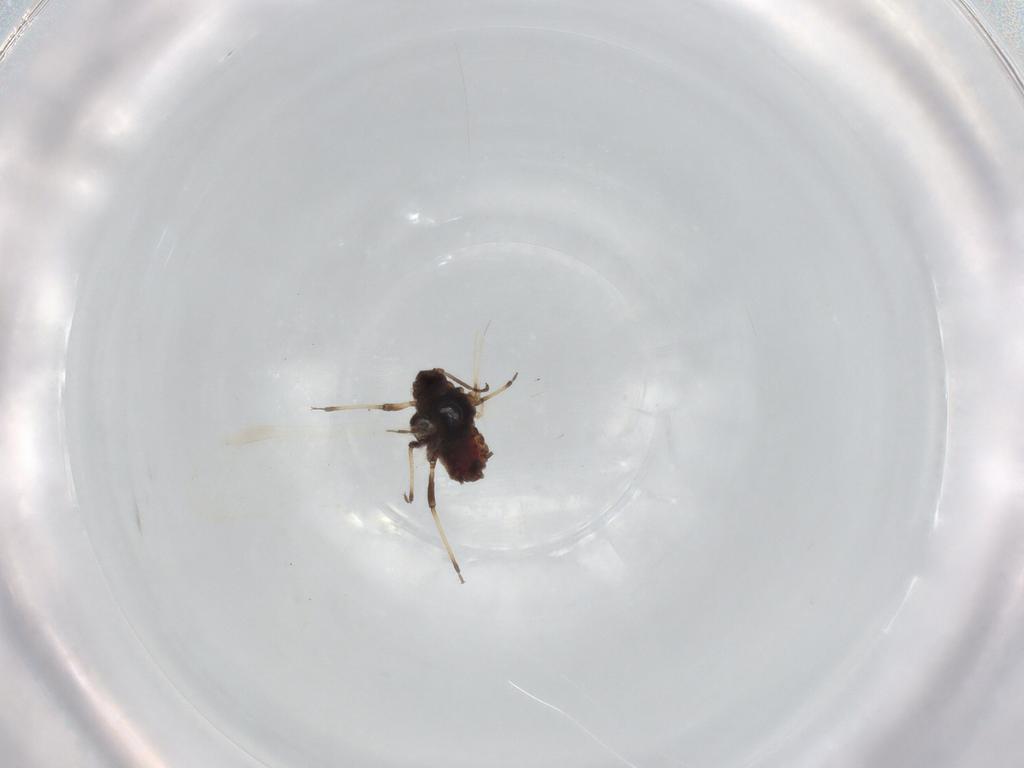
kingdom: Animalia
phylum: Arthropoda
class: Insecta
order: Hemiptera
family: Aphididae
